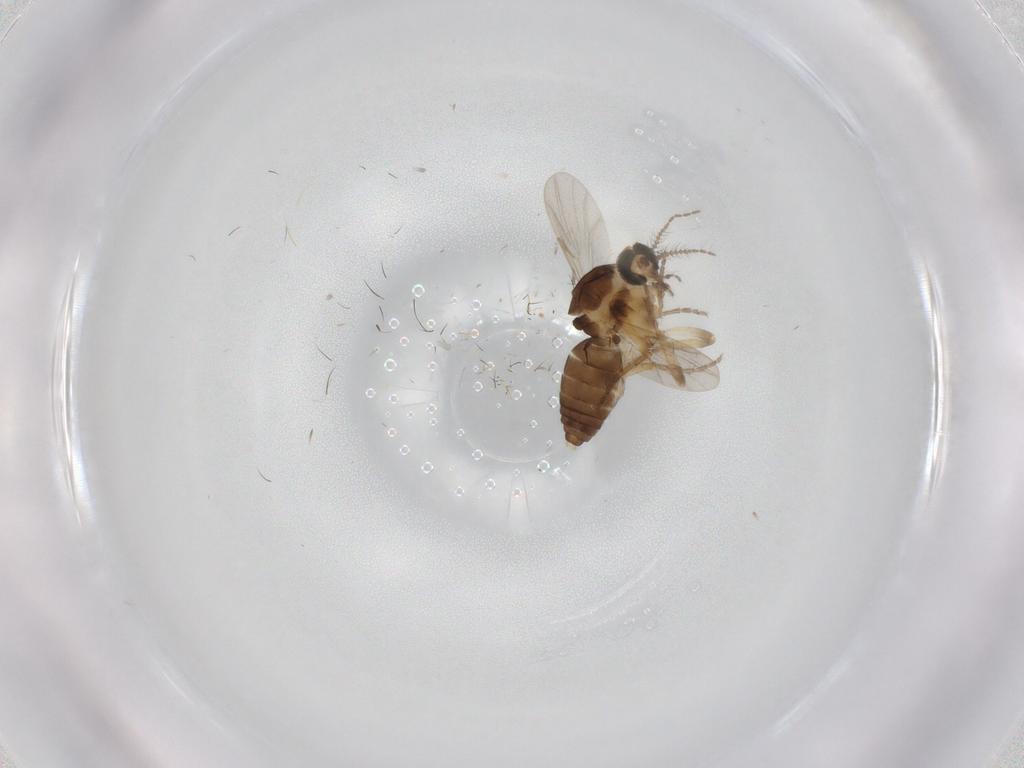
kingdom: Animalia
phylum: Arthropoda
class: Insecta
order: Diptera
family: Ceratopogonidae
